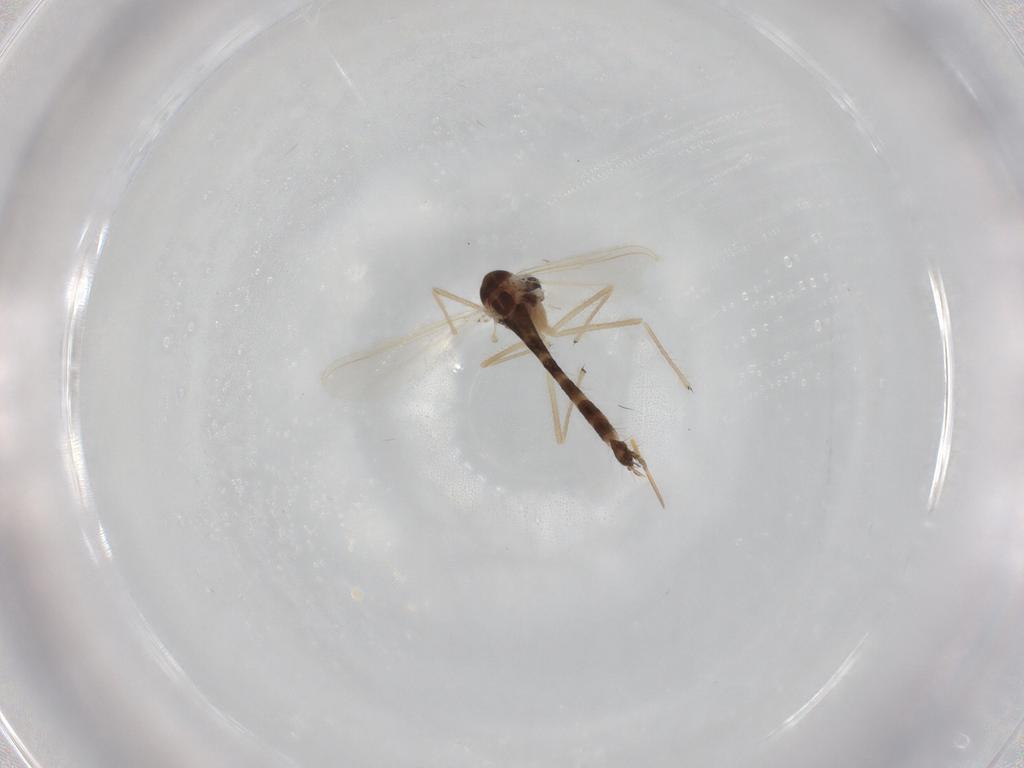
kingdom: Animalia
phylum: Arthropoda
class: Insecta
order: Diptera
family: Chironomidae
